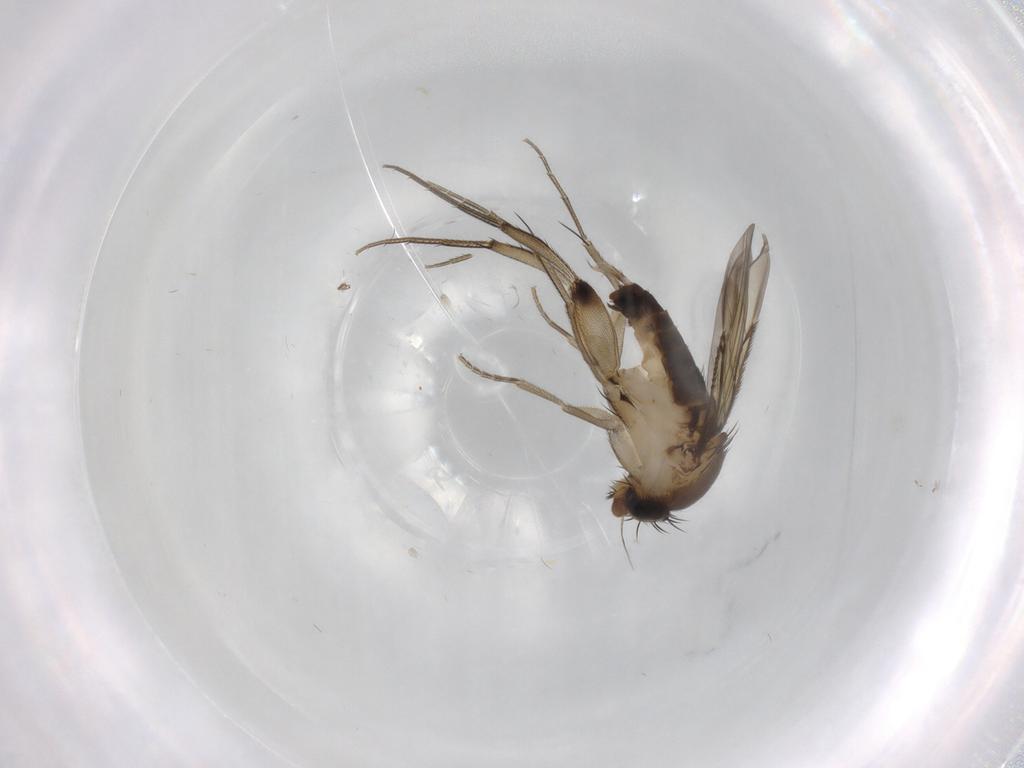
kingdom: Animalia
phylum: Arthropoda
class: Insecta
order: Diptera
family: Phoridae
